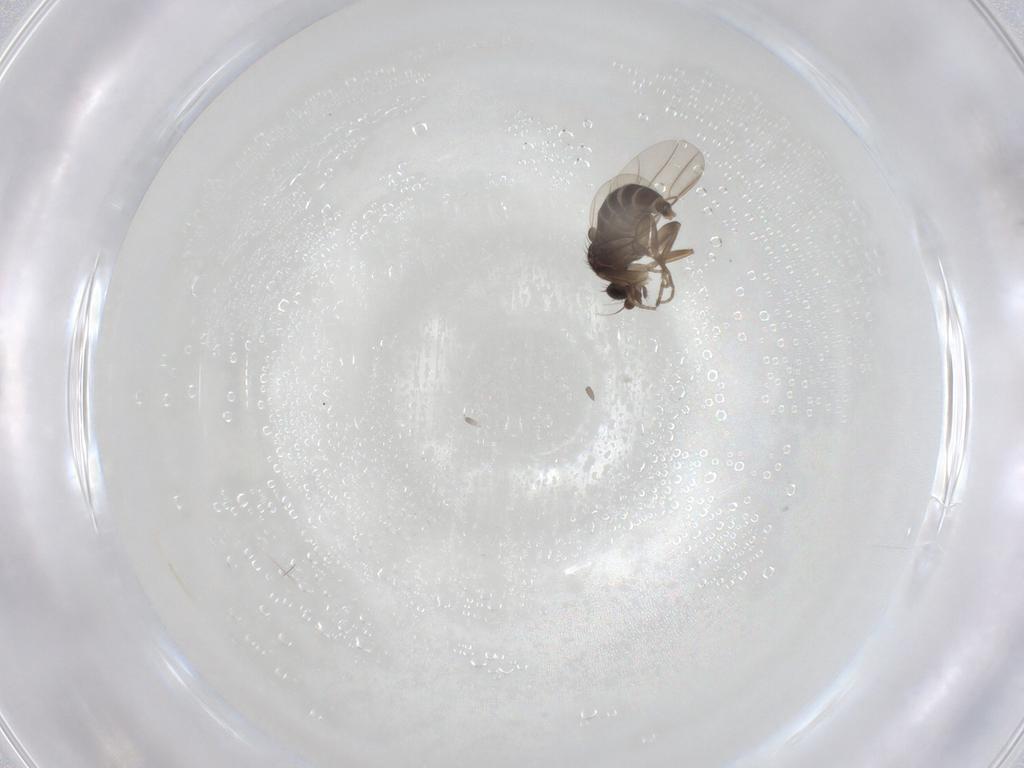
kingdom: Animalia
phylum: Arthropoda
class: Insecta
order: Diptera
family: Phoridae
